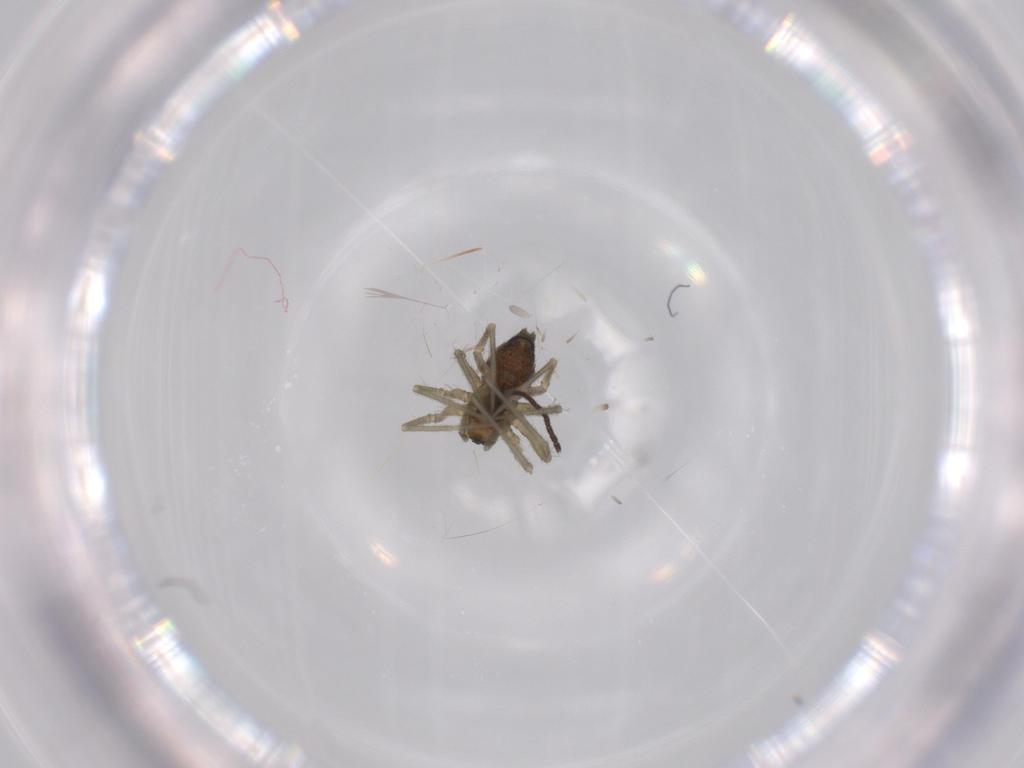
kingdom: Animalia
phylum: Arthropoda
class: Arachnida
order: Araneae
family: Linyphiidae
